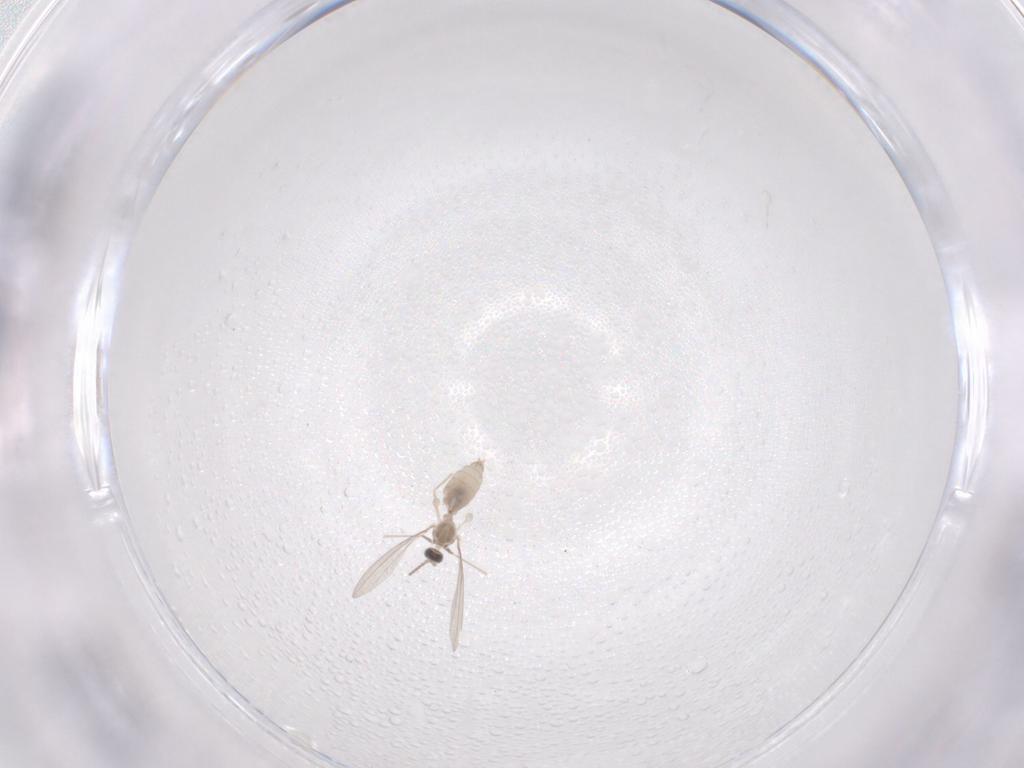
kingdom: Animalia
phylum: Arthropoda
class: Insecta
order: Diptera
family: Cecidomyiidae
